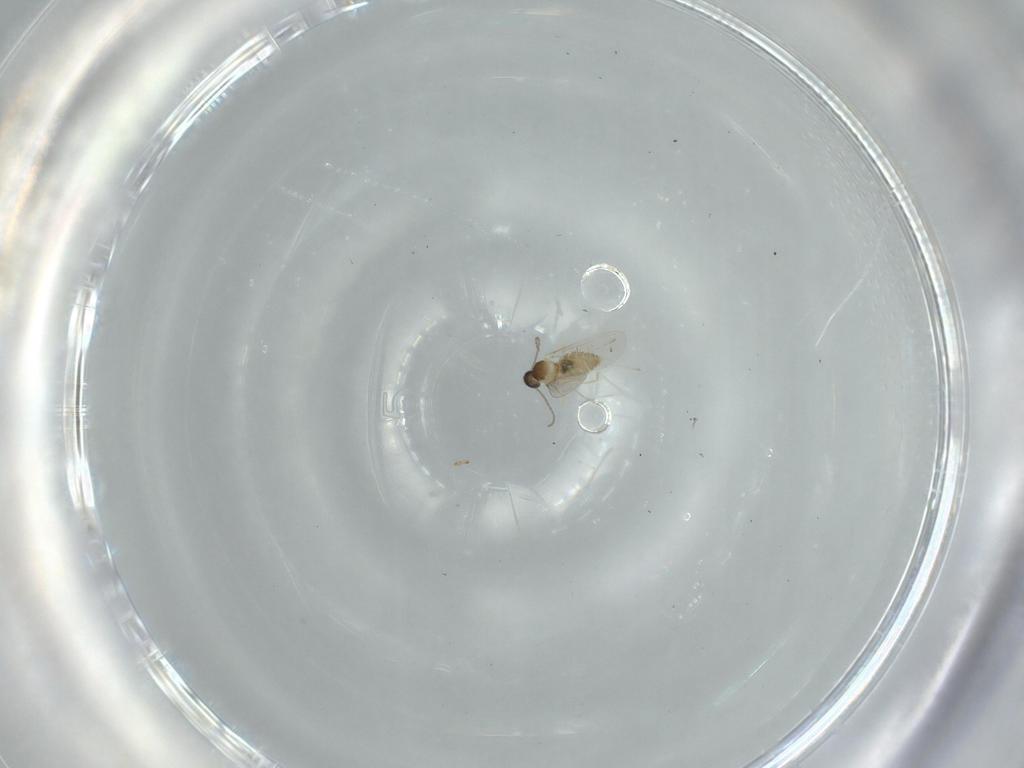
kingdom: Animalia
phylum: Arthropoda
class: Insecta
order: Diptera
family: Cecidomyiidae
